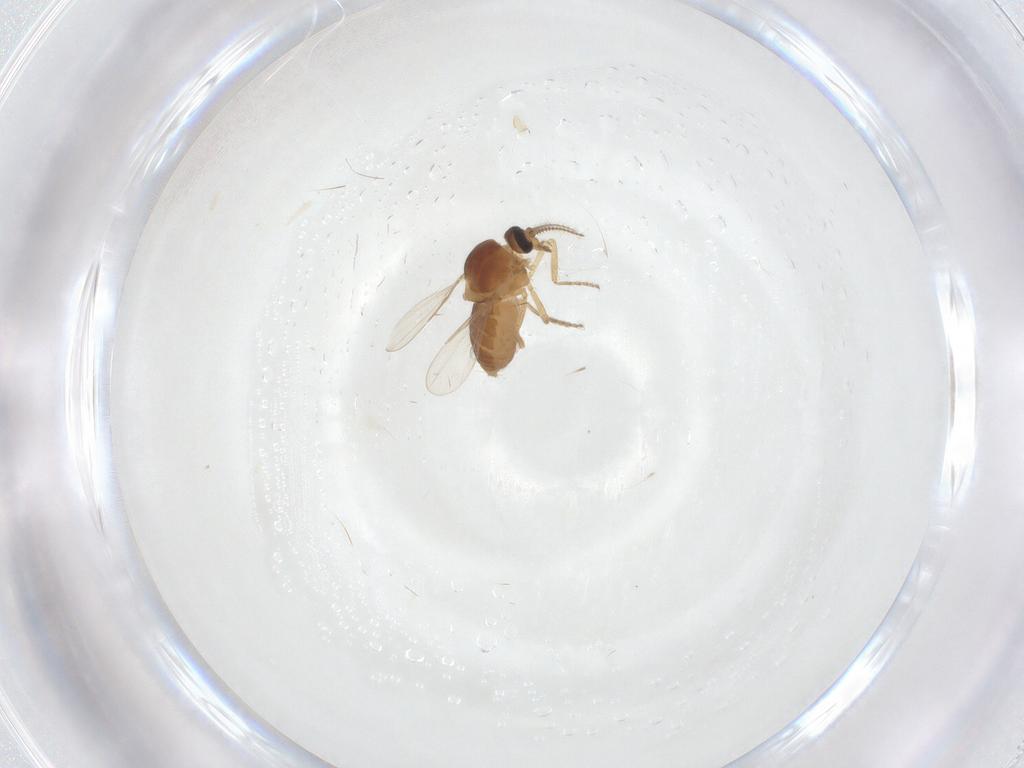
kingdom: Animalia
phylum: Arthropoda
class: Insecta
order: Diptera
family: Ceratopogonidae
